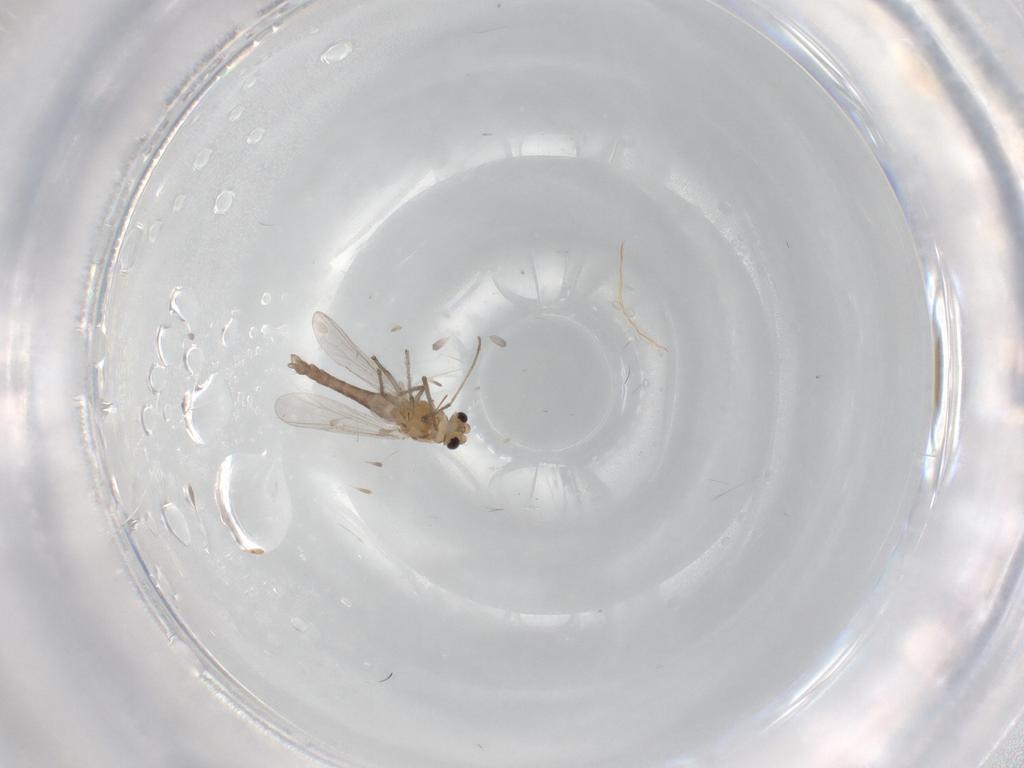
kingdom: Animalia
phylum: Arthropoda
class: Insecta
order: Diptera
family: Chironomidae
